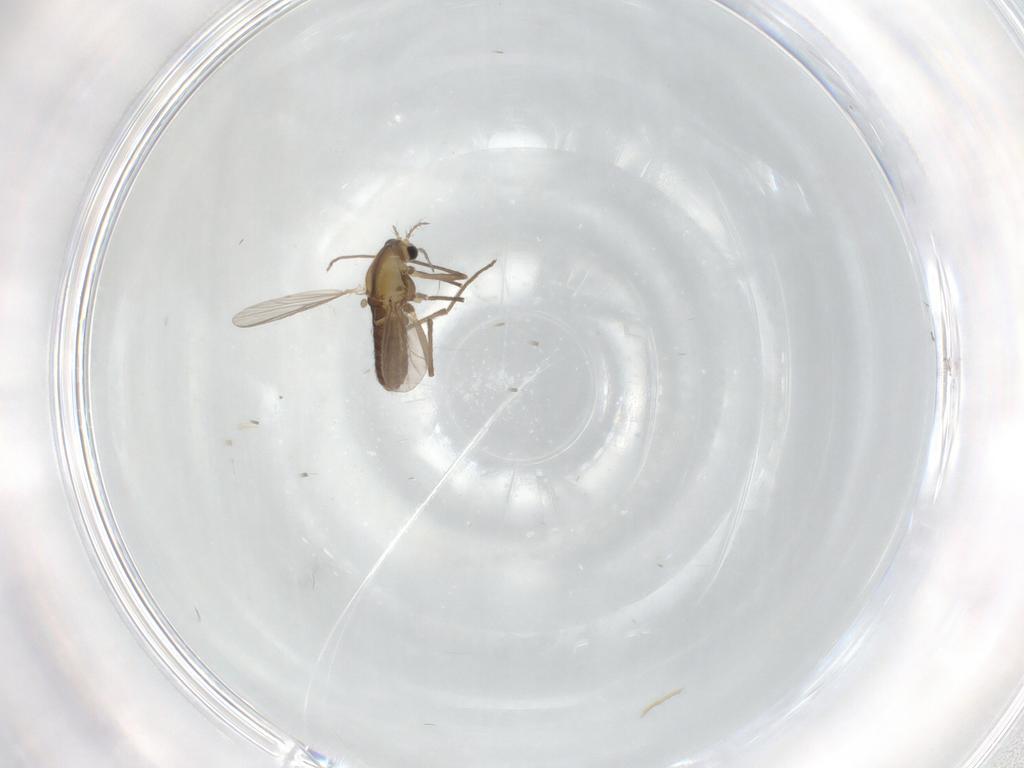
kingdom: Animalia
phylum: Arthropoda
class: Insecta
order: Diptera
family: Chironomidae
